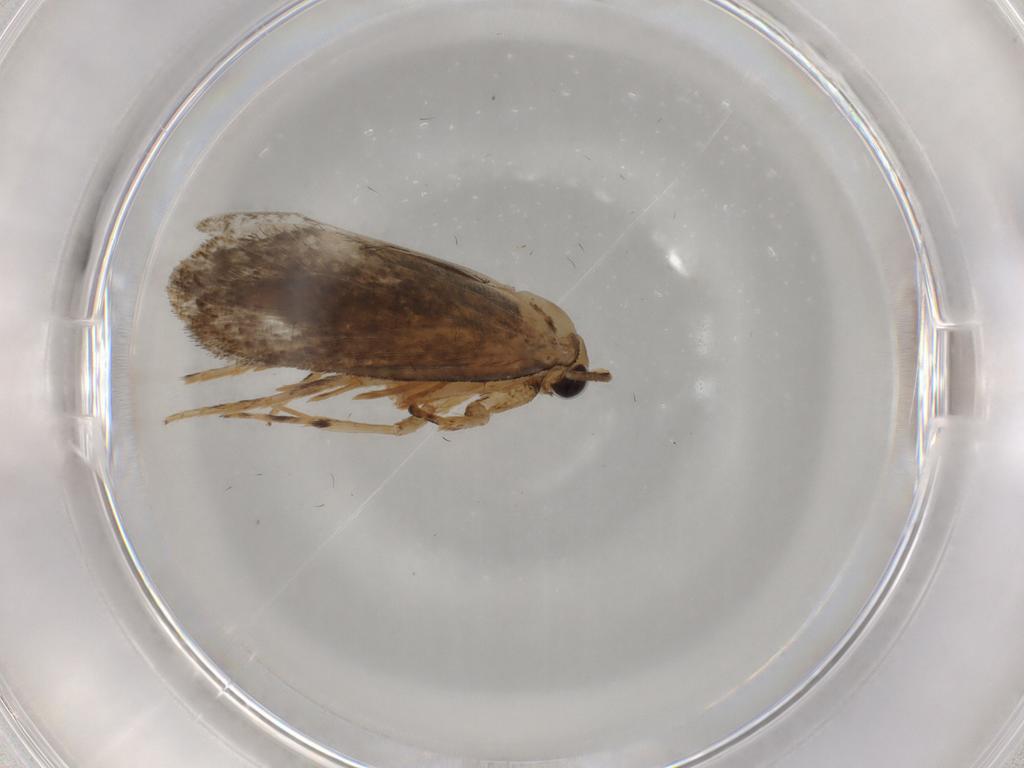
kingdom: Animalia
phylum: Arthropoda
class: Insecta
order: Lepidoptera
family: Tineidae
